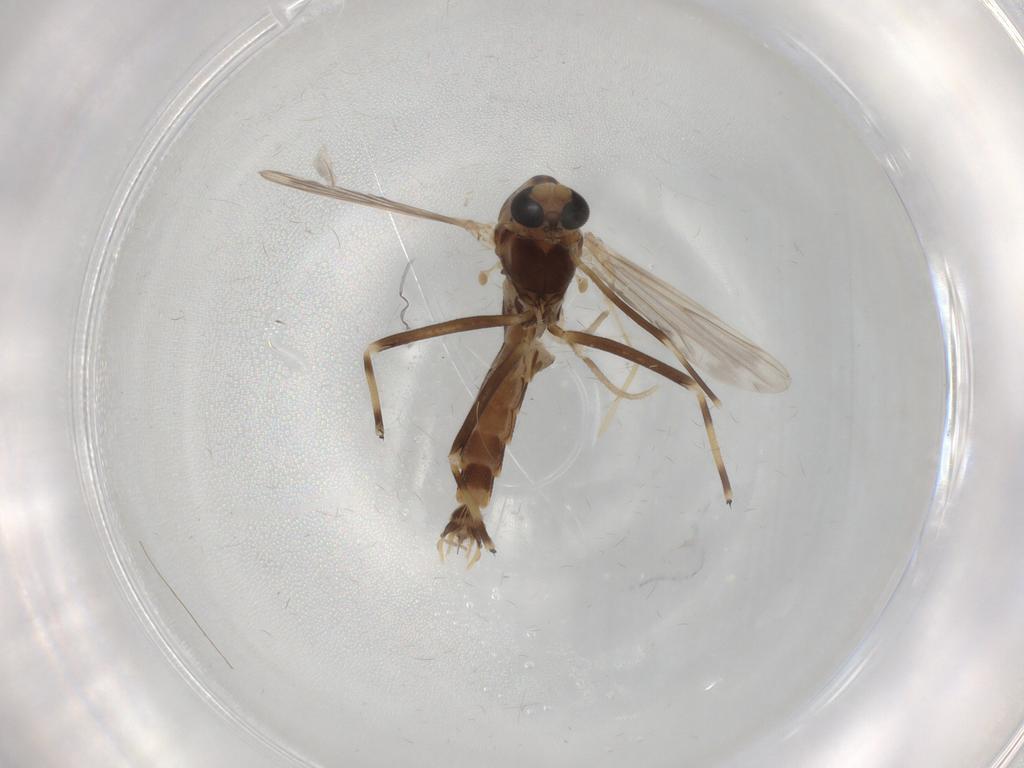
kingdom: Animalia
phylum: Arthropoda
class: Insecta
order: Diptera
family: Chironomidae
